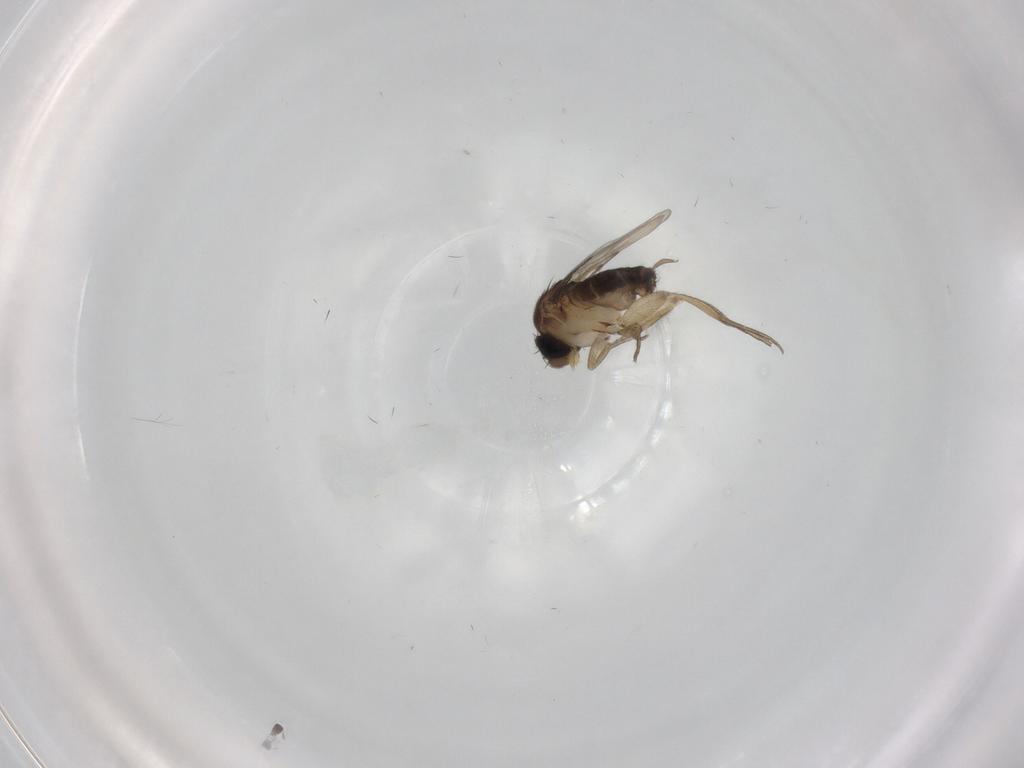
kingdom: Animalia
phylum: Arthropoda
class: Insecta
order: Diptera
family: Phoridae
